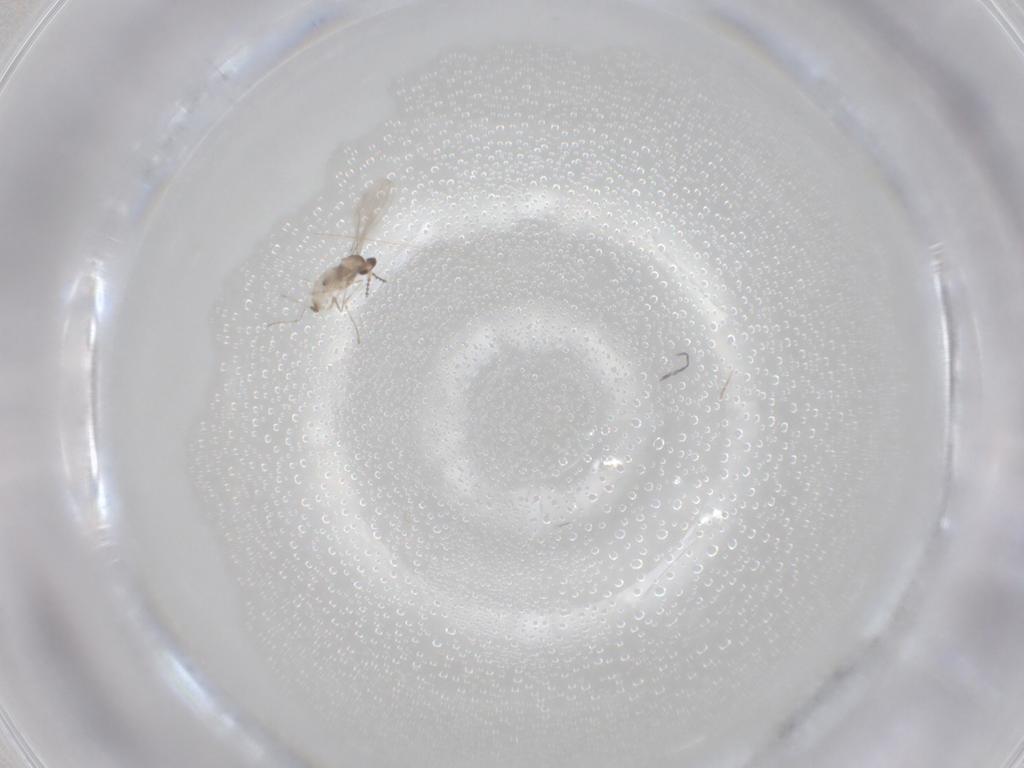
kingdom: Animalia
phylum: Arthropoda
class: Insecta
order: Diptera
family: Cecidomyiidae
